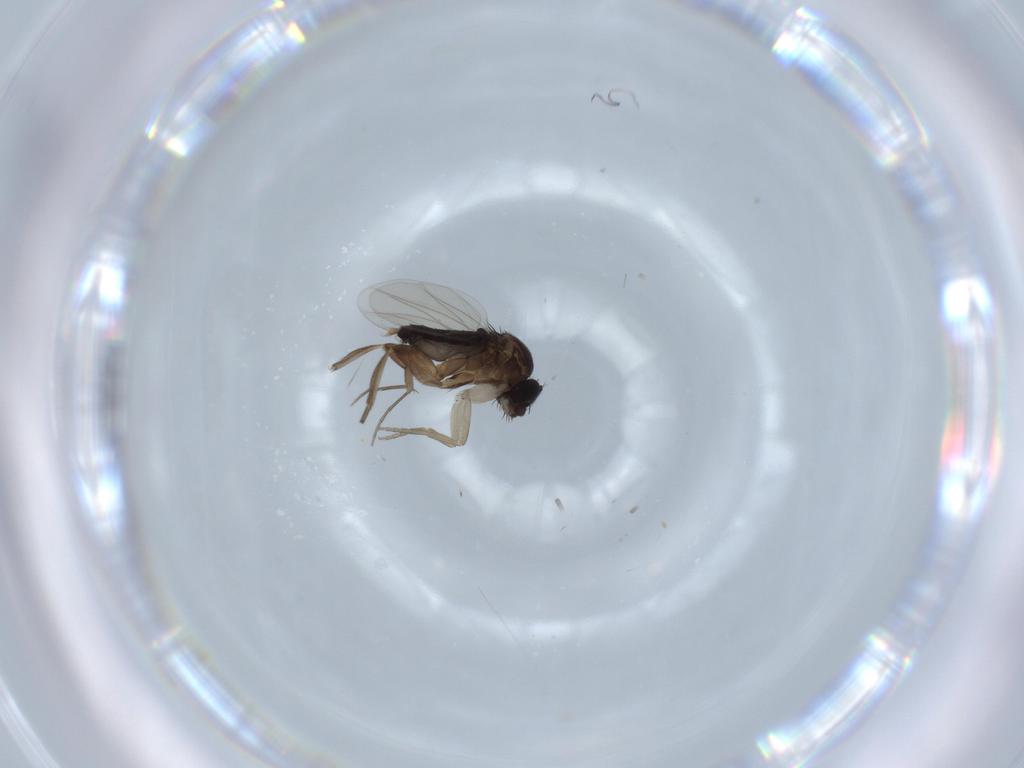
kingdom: Animalia
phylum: Arthropoda
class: Insecta
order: Diptera
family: Phoridae
